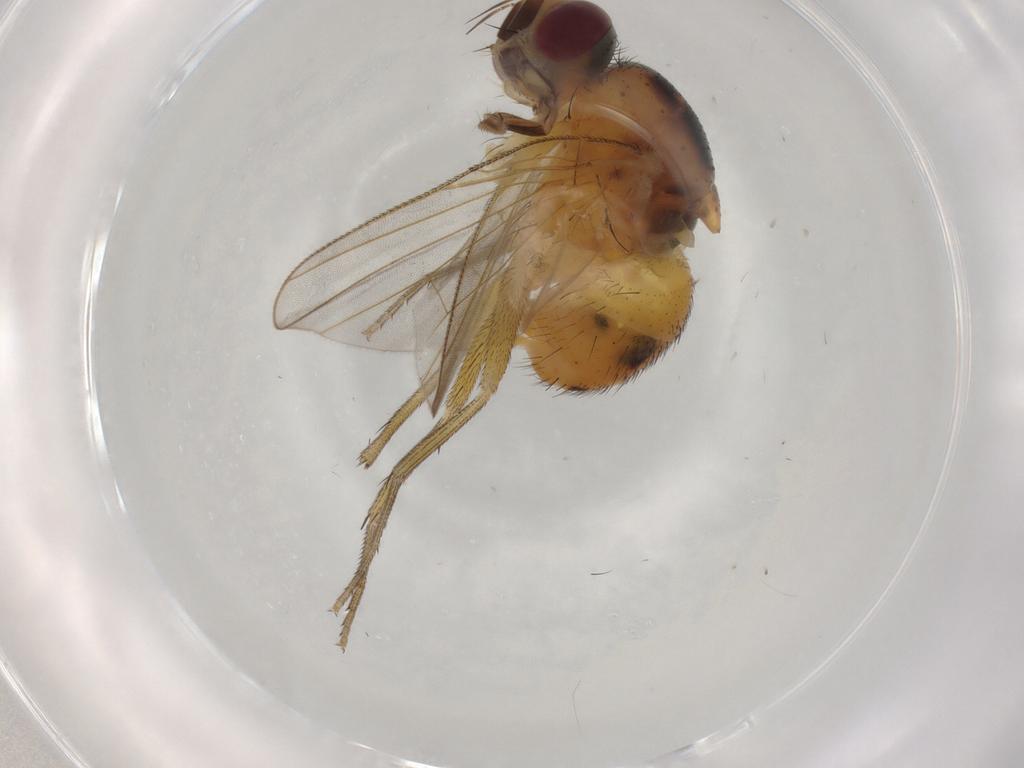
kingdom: Animalia
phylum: Arthropoda
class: Insecta
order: Diptera
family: Muscidae
